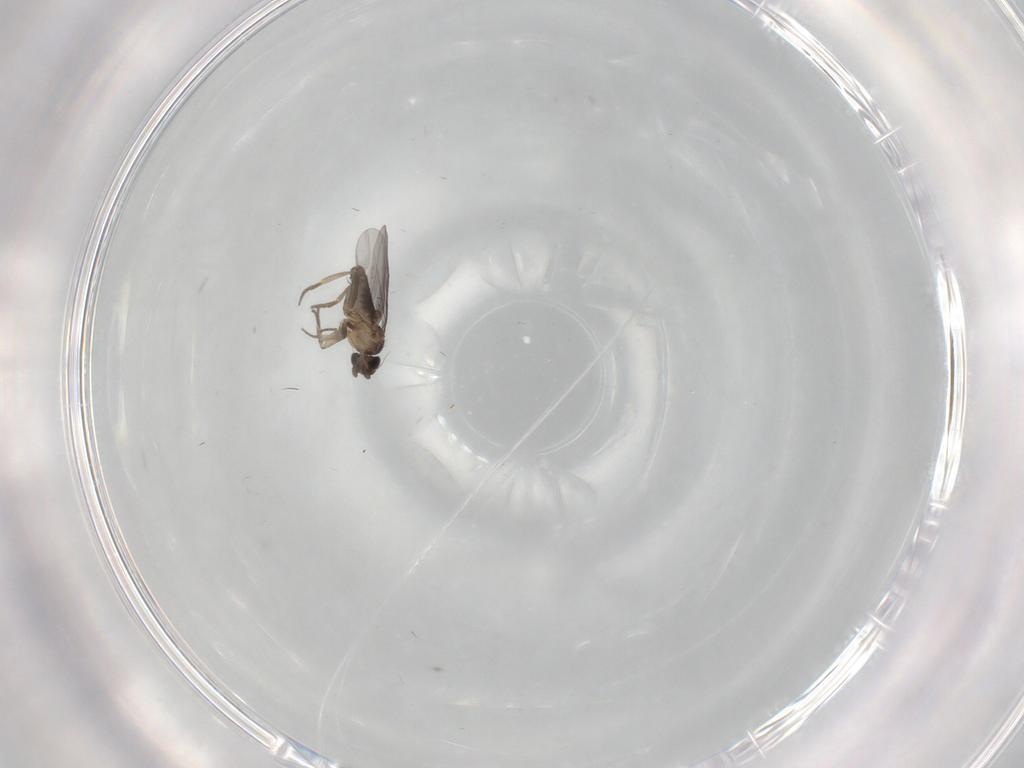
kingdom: Animalia
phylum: Arthropoda
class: Insecta
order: Diptera
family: Phoridae
